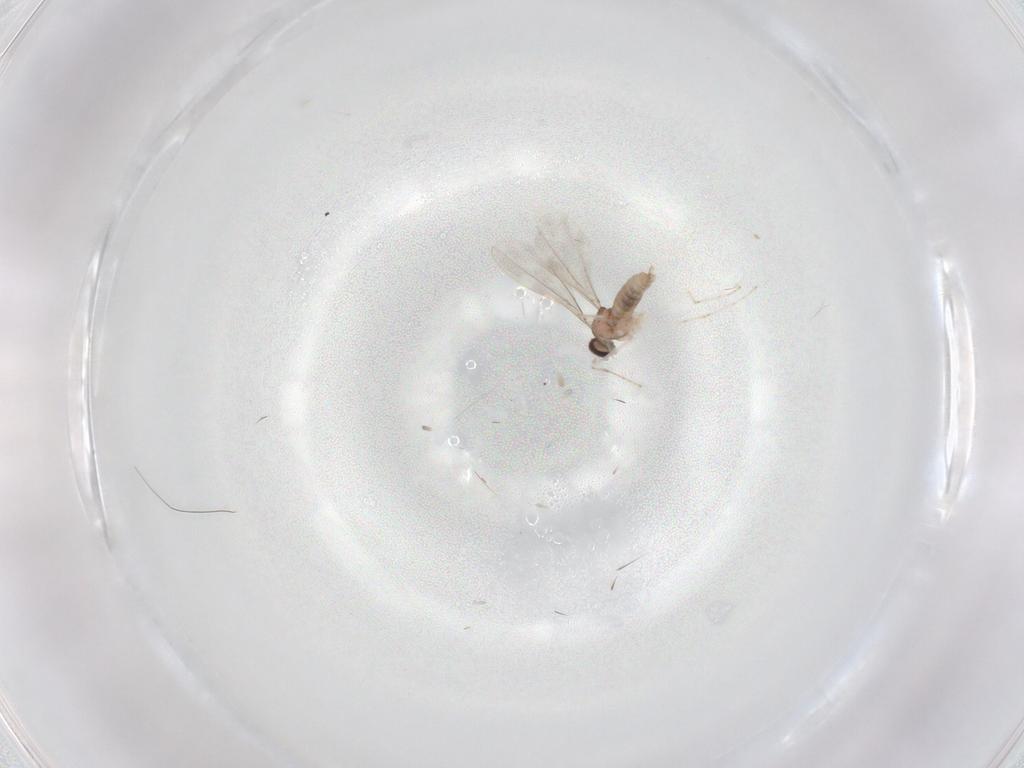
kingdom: Animalia
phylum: Arthropoda
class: Insecta
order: Diptera
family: Cecidomyiidae
